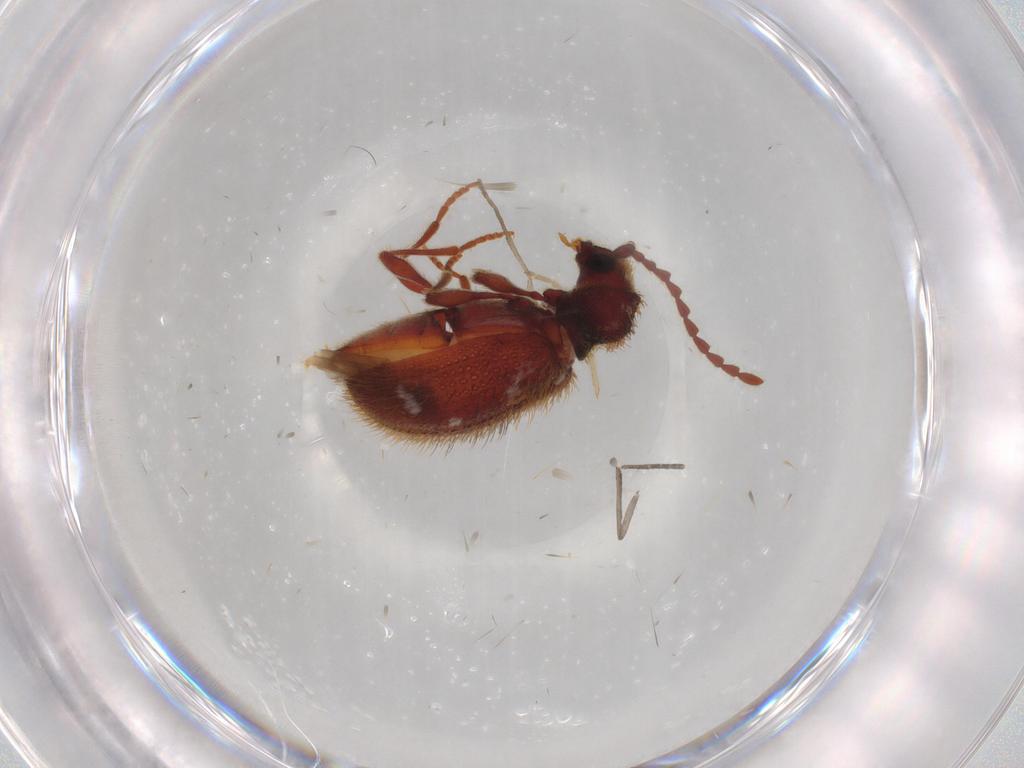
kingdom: Animalia
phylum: Arthropoda
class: Insecta
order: Coleoptera
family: Ptinidae
